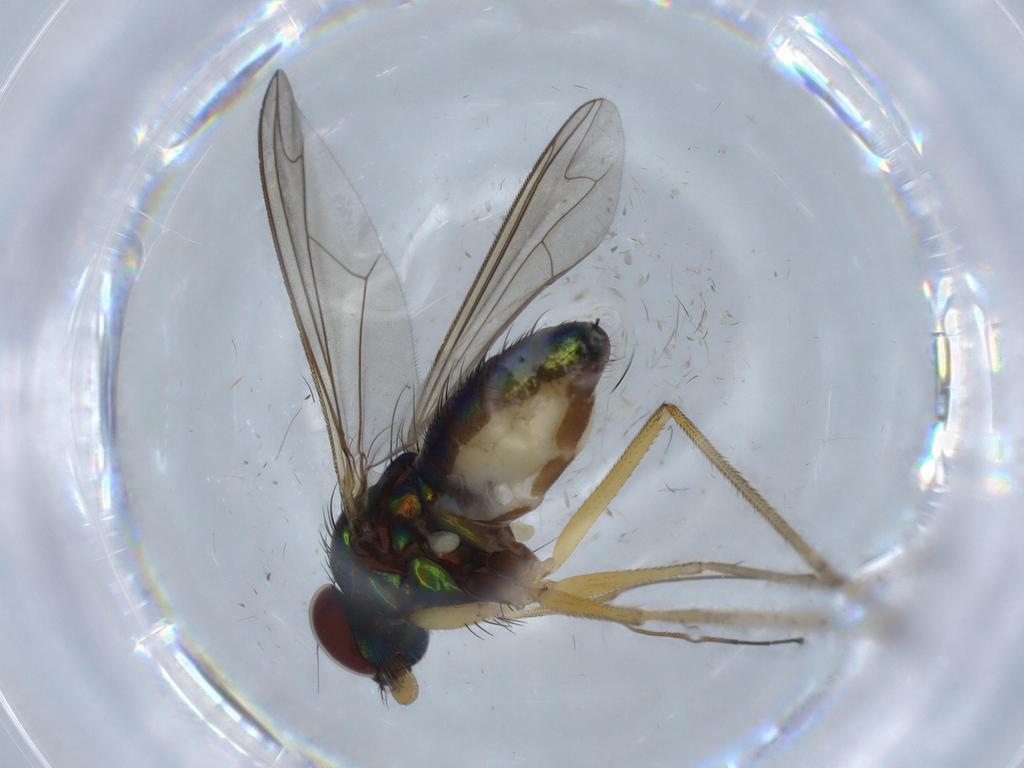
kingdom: Animalia
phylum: Arthropoda
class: Insecta
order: Diptera
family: Dolichopodidae
